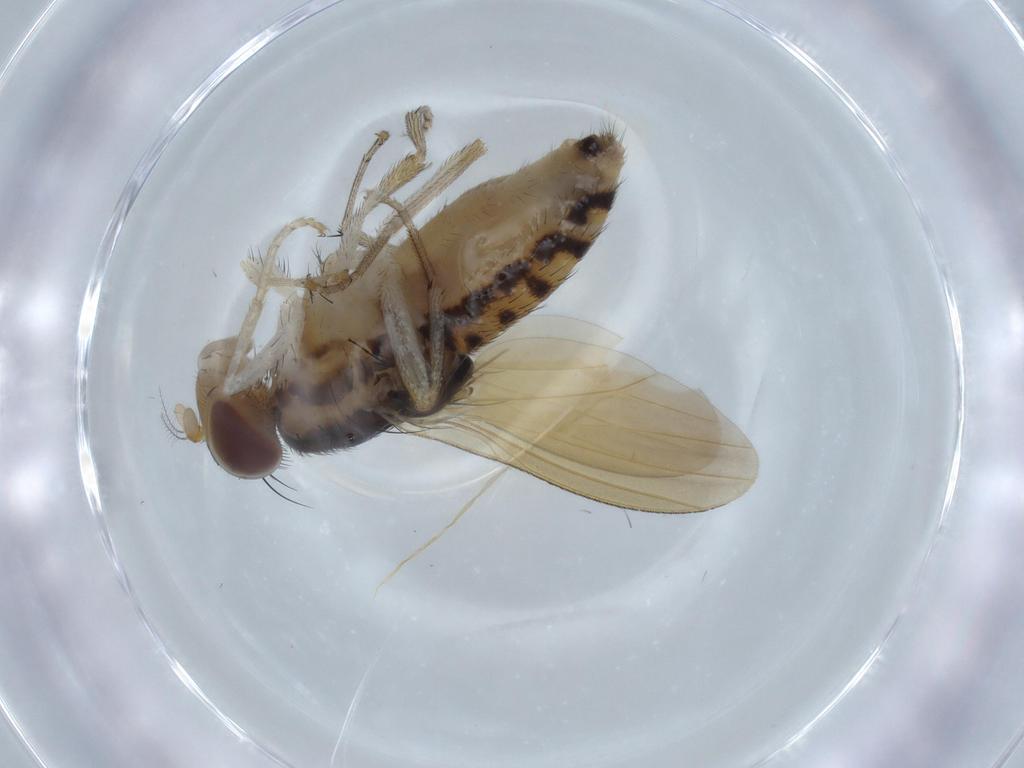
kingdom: Animalia
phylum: Arthropoda
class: Insecta
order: Diptera
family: Cecidomyiidae
